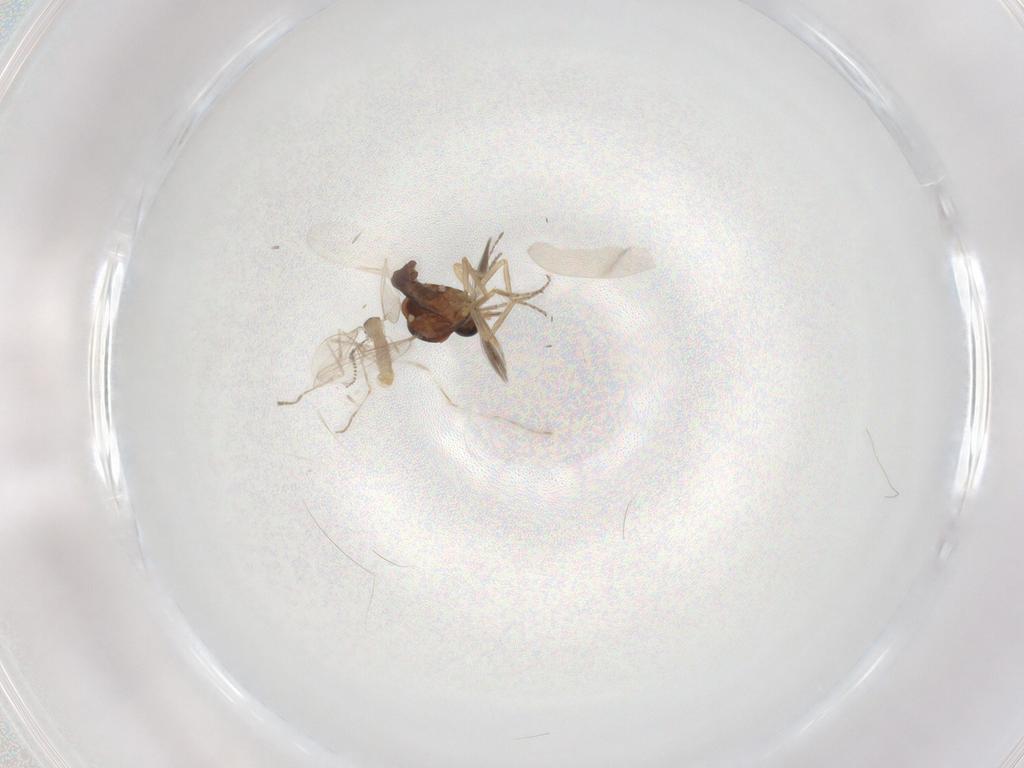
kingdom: Animalia
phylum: Arthropoda
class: Insecta
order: Diptera
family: Ceratopogonidae
